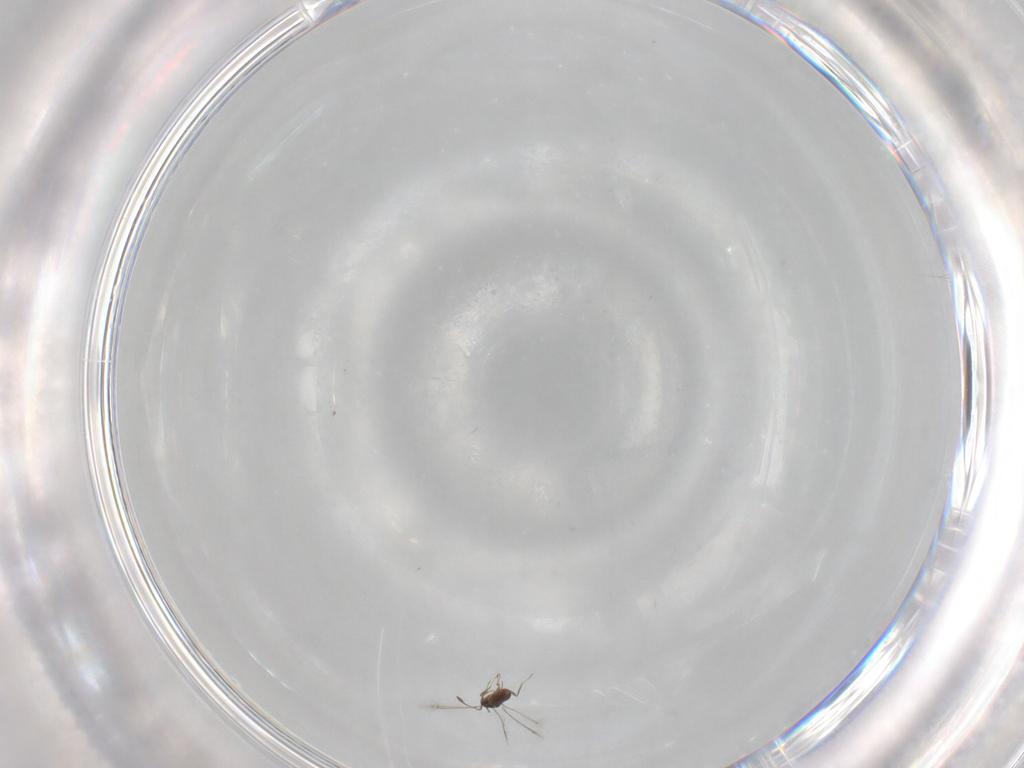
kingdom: Animalia
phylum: Arthropoda
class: Insecta
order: Hymenoptera
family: Mymaridae
